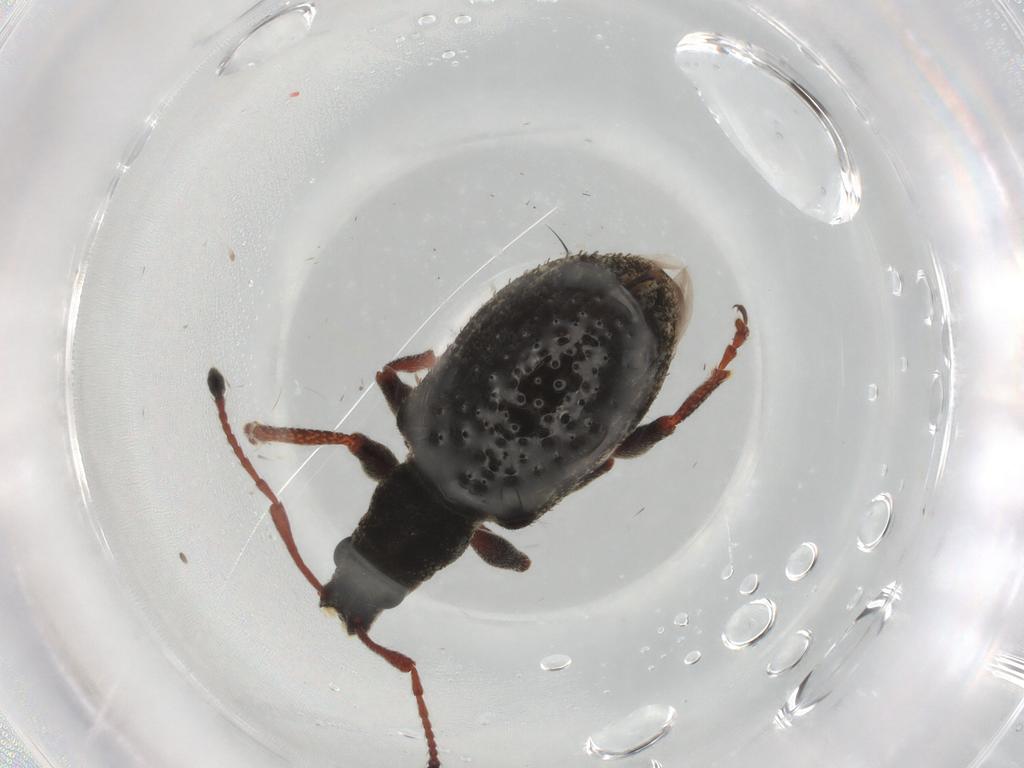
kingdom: Animalia
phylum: Arthropoda
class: Insecta
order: Coleoptera
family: Curculionidae
